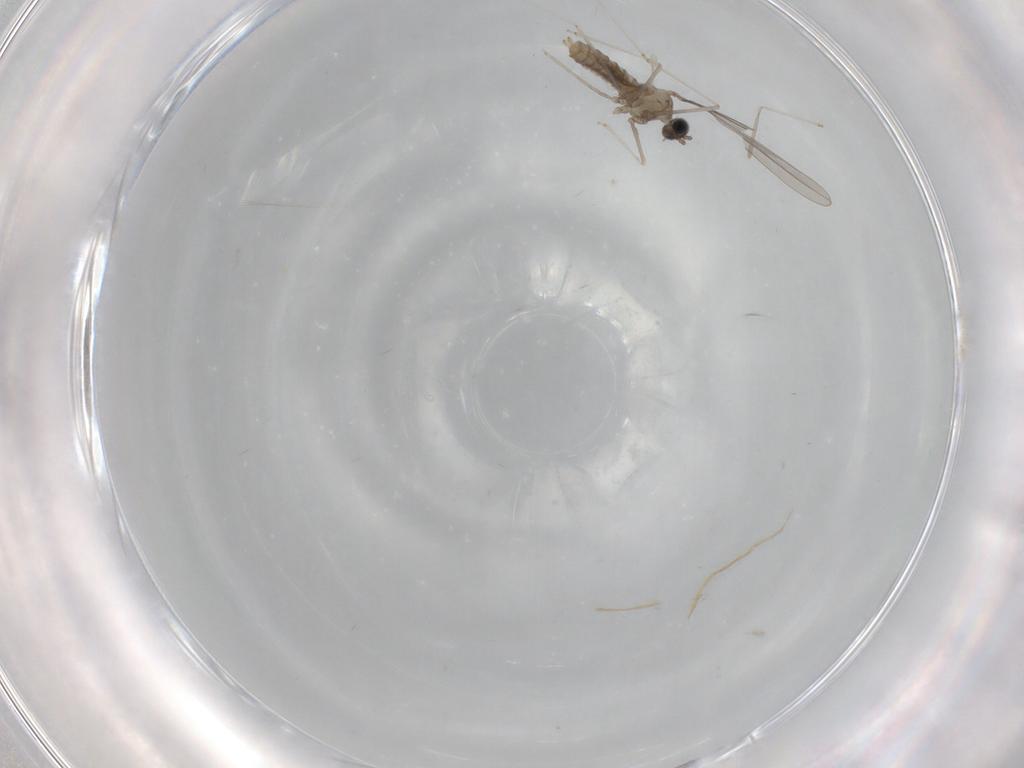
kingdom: Animalia
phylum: Arthropoda
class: Insecta
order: Diptera
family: Cecidomyiidae
